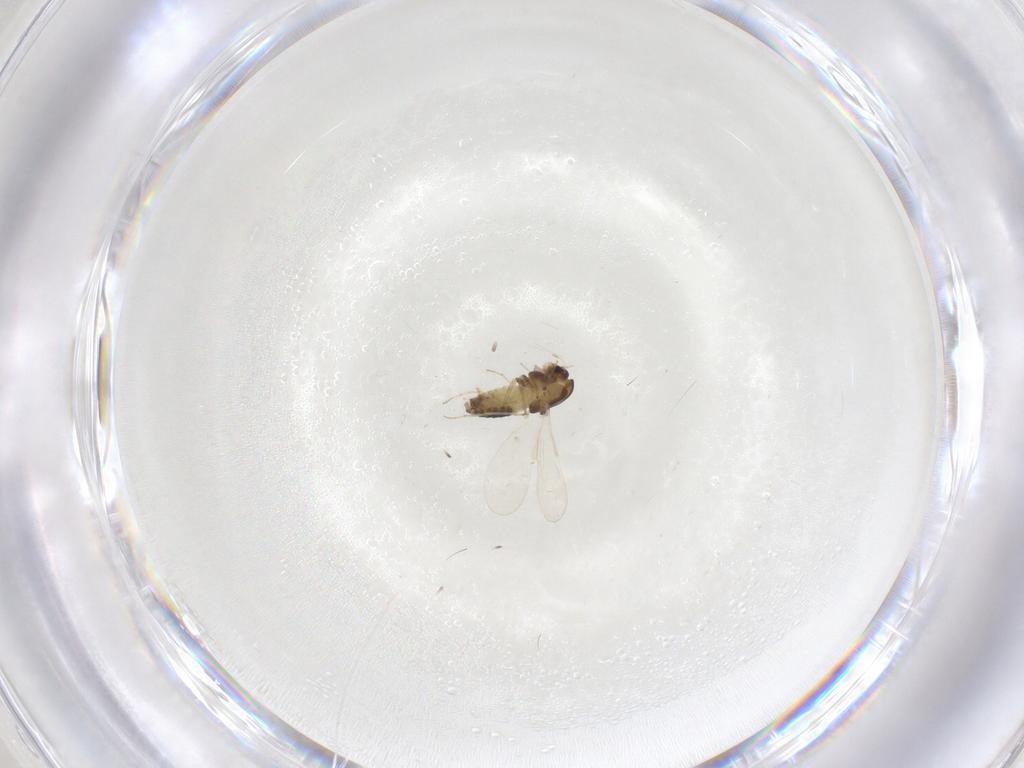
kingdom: Animalia
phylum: Arthropoda
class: Insecta
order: Diptera
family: Chironomidae
